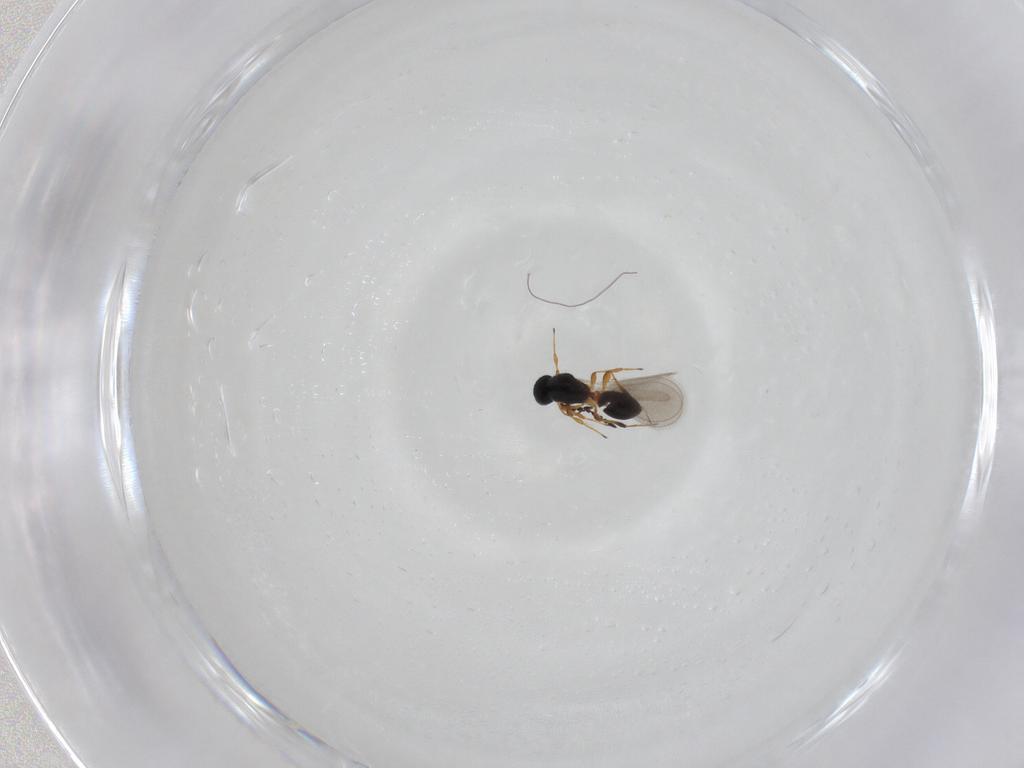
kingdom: Animalia
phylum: Arthropoda
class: Insecta
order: Hymenoptera
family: Platygastridae
